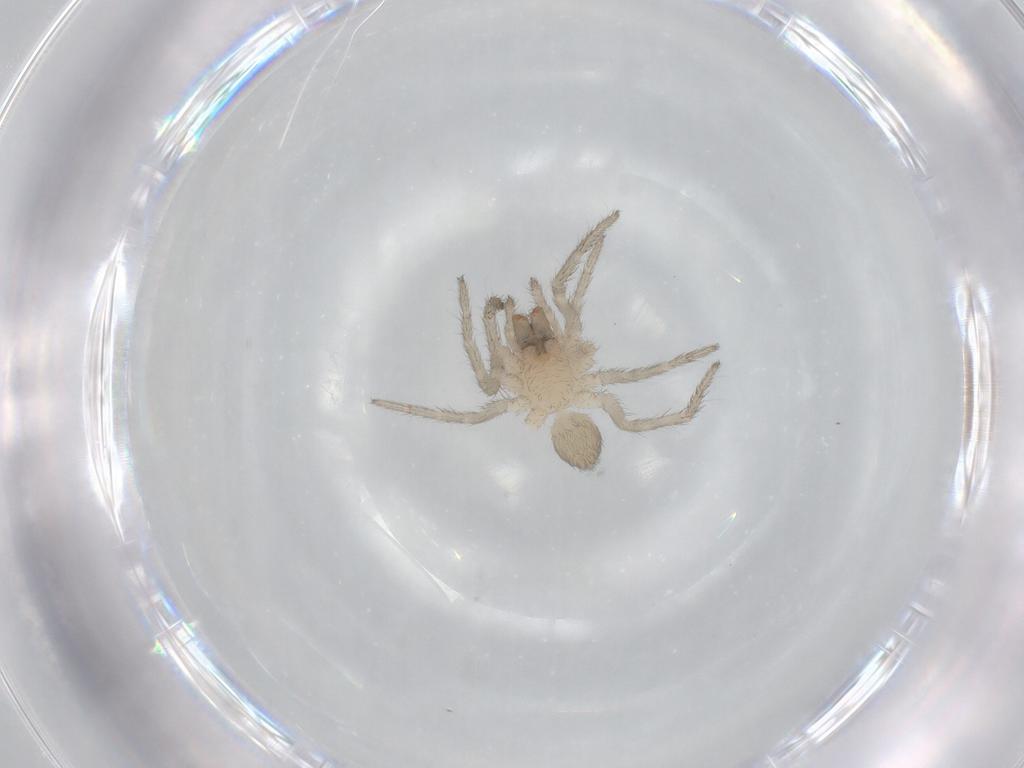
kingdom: Animalia
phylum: Arthropoda
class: Arachnida
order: Araneae
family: Lycosidae
